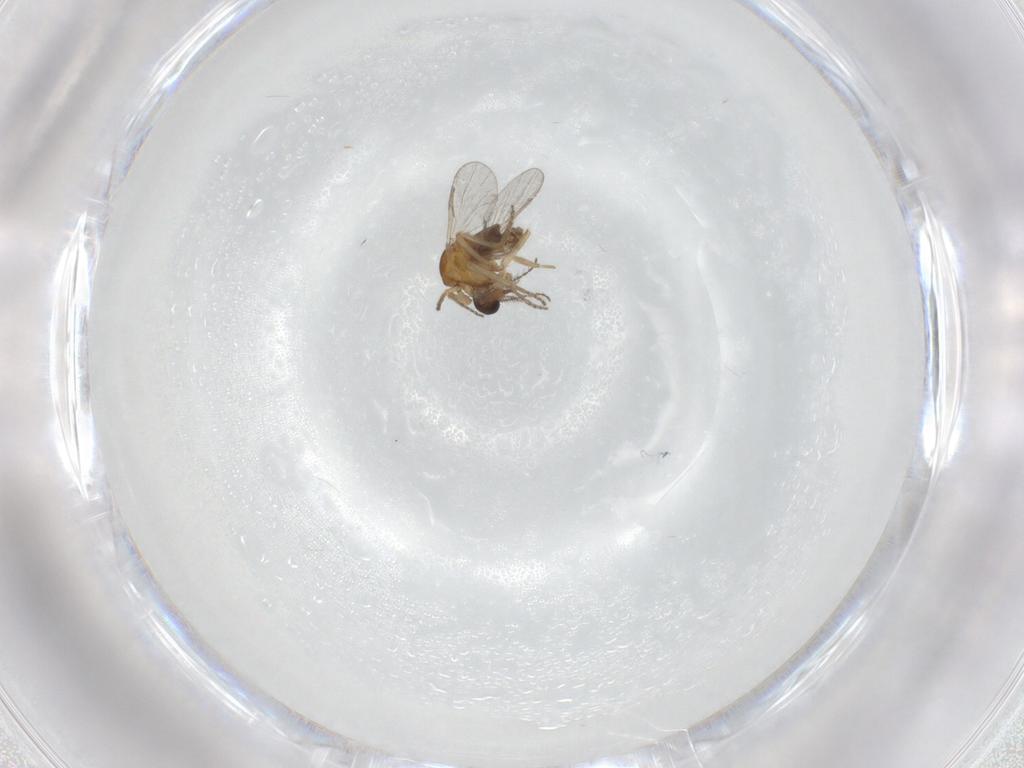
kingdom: Animalia
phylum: Arthropoda
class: Insecta
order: Diptera
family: Ceratopogonidae
